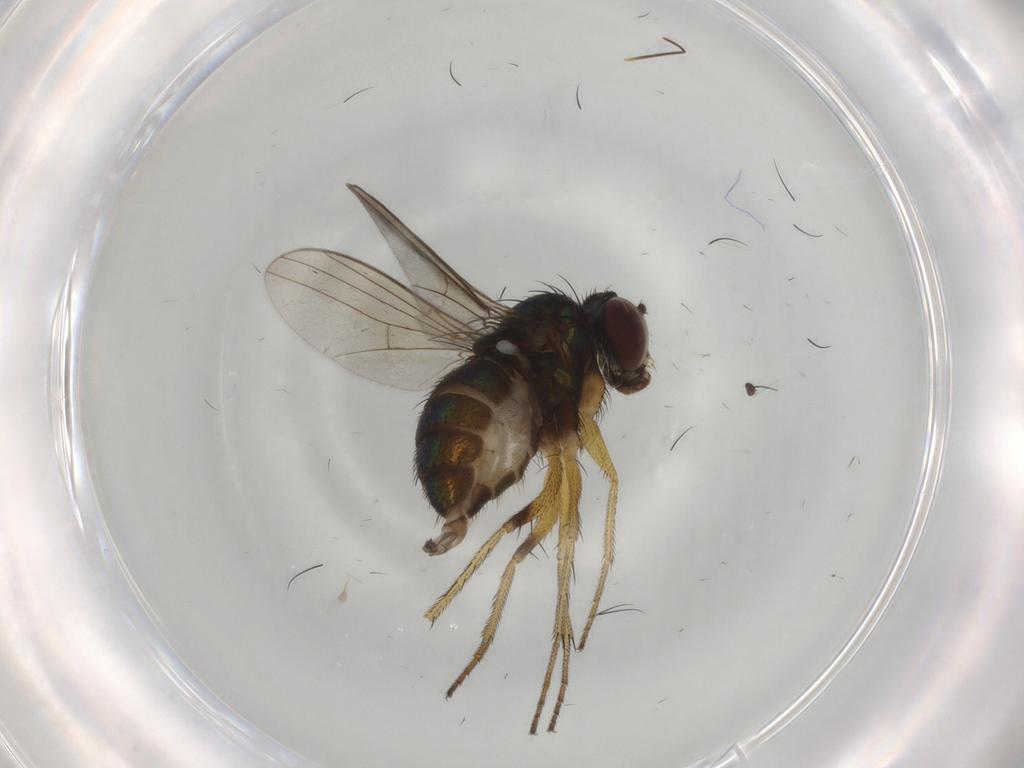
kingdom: Animalia
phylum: Arthropoda
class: Insecta
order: Diptera
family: Dolichopodidae
